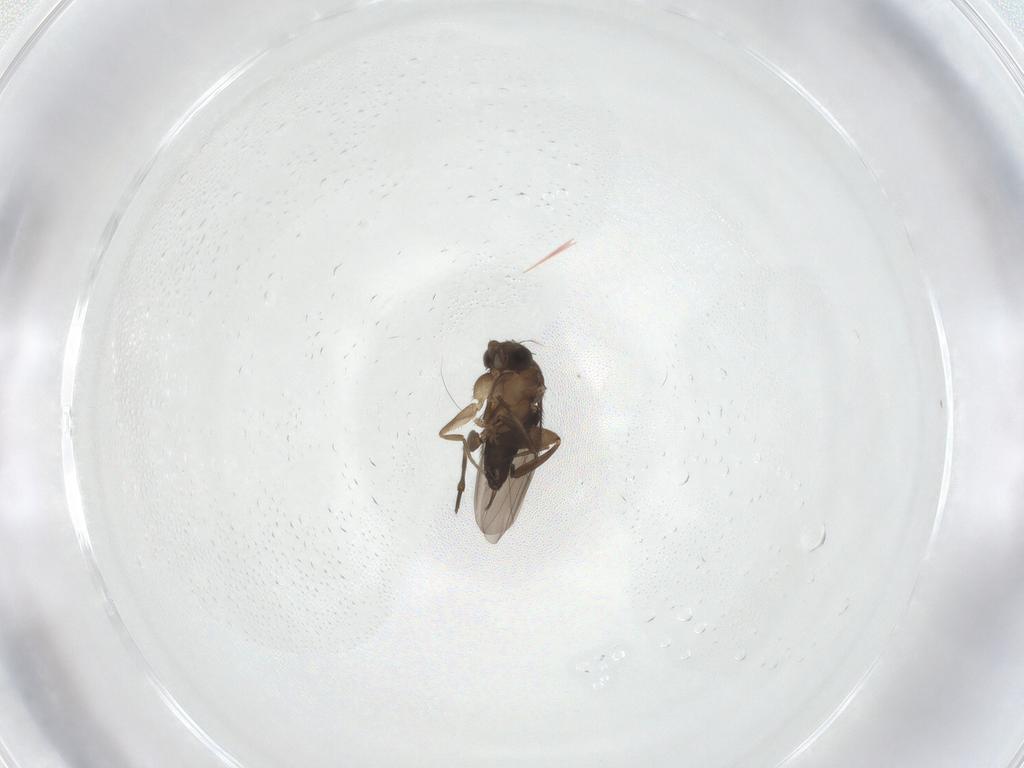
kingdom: Animalia
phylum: Arthropoda
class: Insecta
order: Diptera
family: Phoridae
